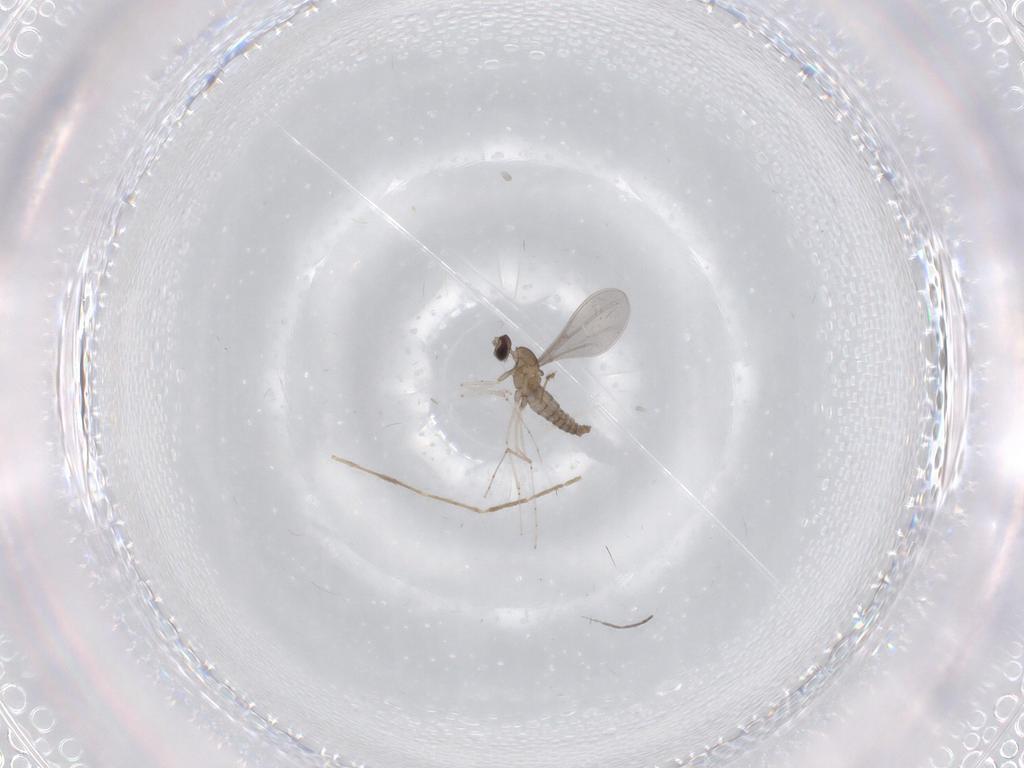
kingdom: Animalia
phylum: Arthropoda
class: Insecta
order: Diptera
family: Cecidomyiidae
